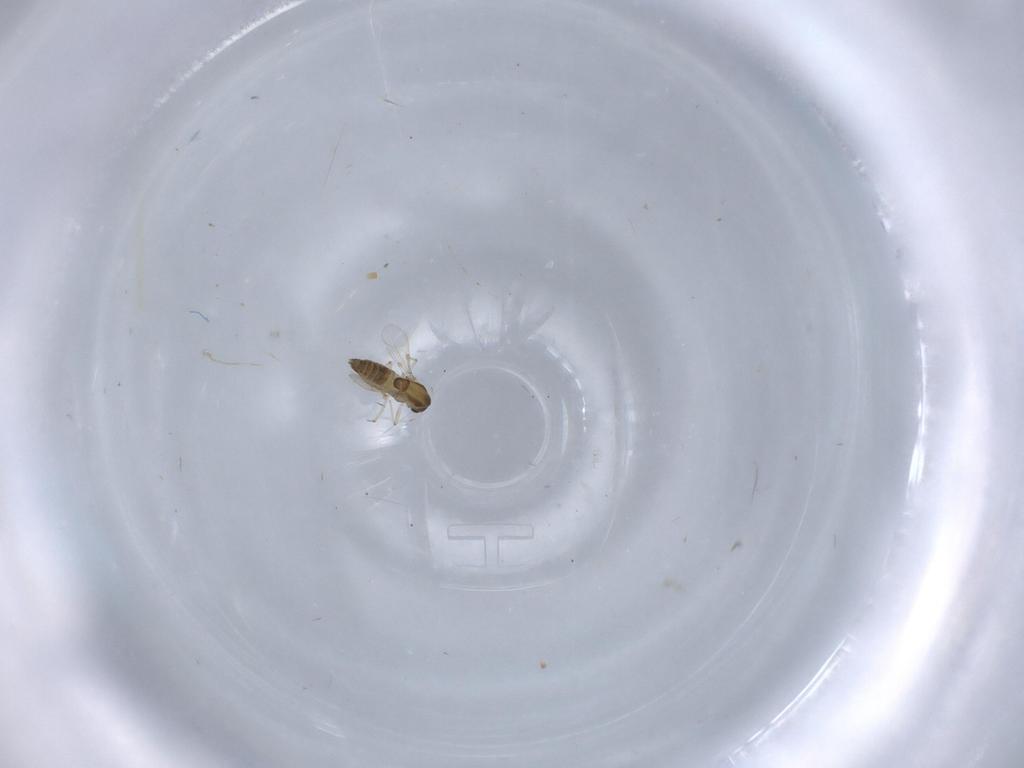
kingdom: Animalia
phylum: Arthropoda
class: Insecta
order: Diptera
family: Chironomidae
